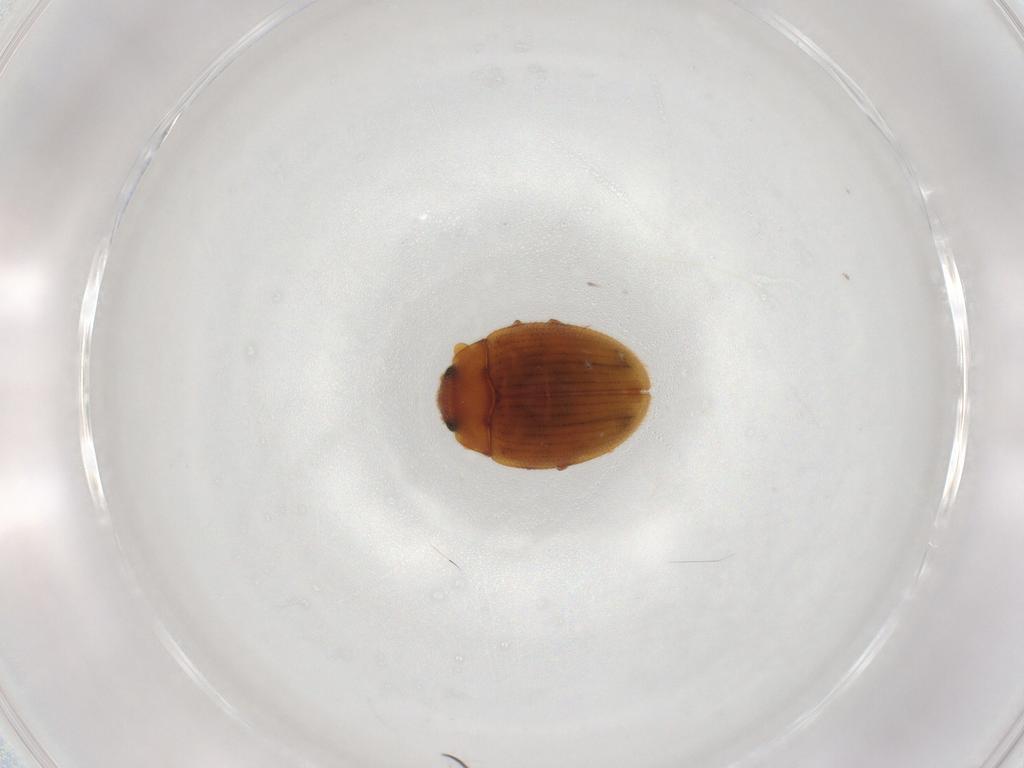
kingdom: Animalia
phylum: Arthropoda
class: Insecta
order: Coleoptera
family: Euxestidae
